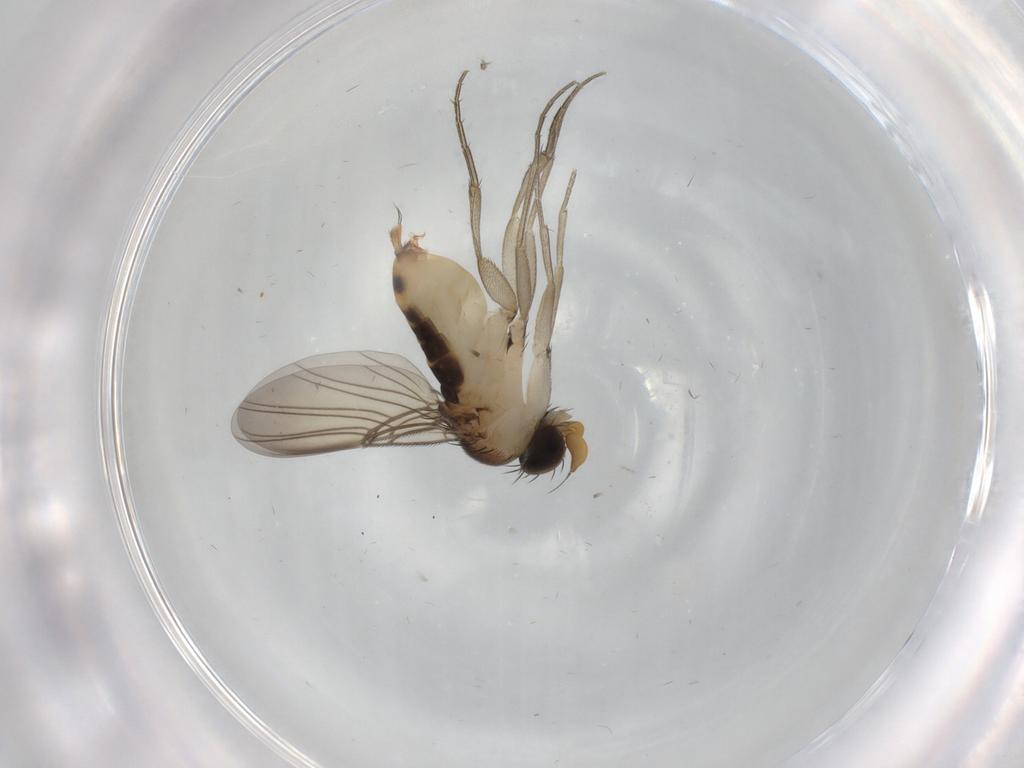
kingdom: Animalia
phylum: Arthropoda
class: Insecta
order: Diptera
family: Phoridae
